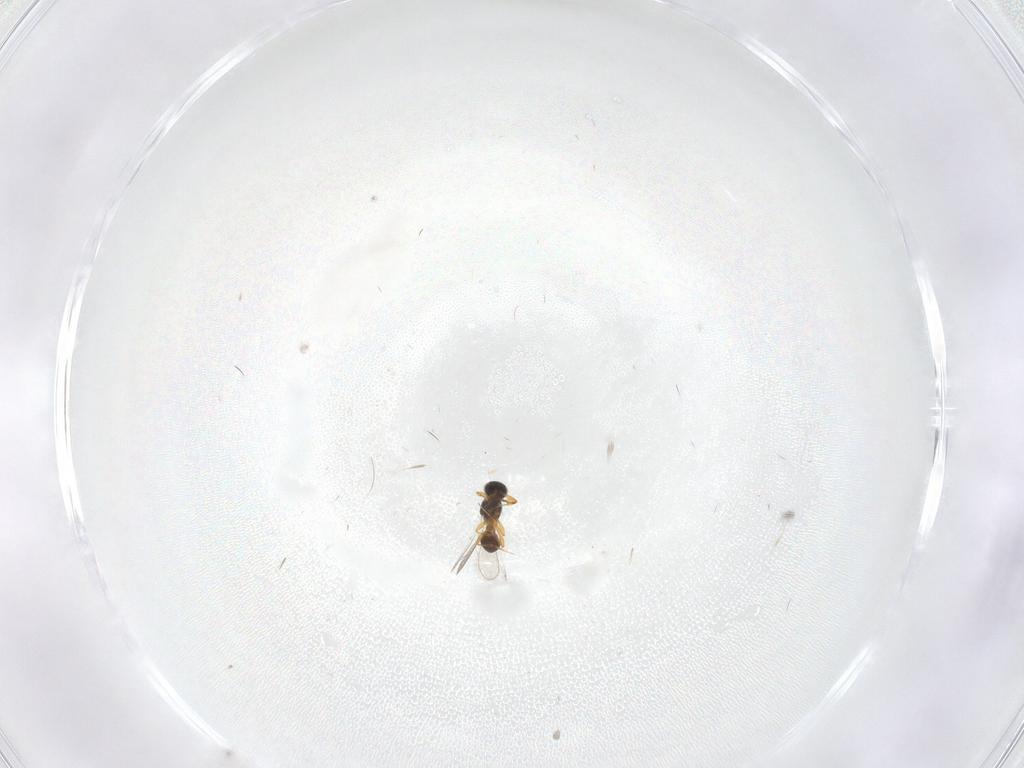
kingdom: Animalia
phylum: Arthropoda
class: Insecta
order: Hymenoptera
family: Platygastridae
